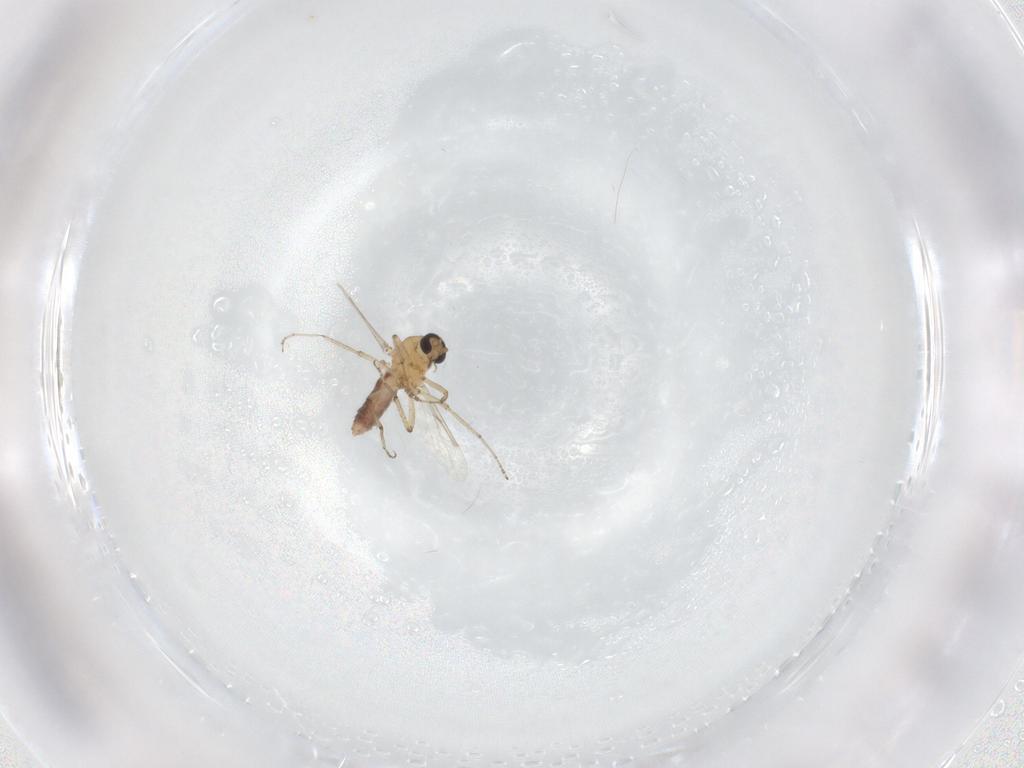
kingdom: Animalia
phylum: Arthropoda
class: Insecta
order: Diptera
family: Ceratopogonidae
